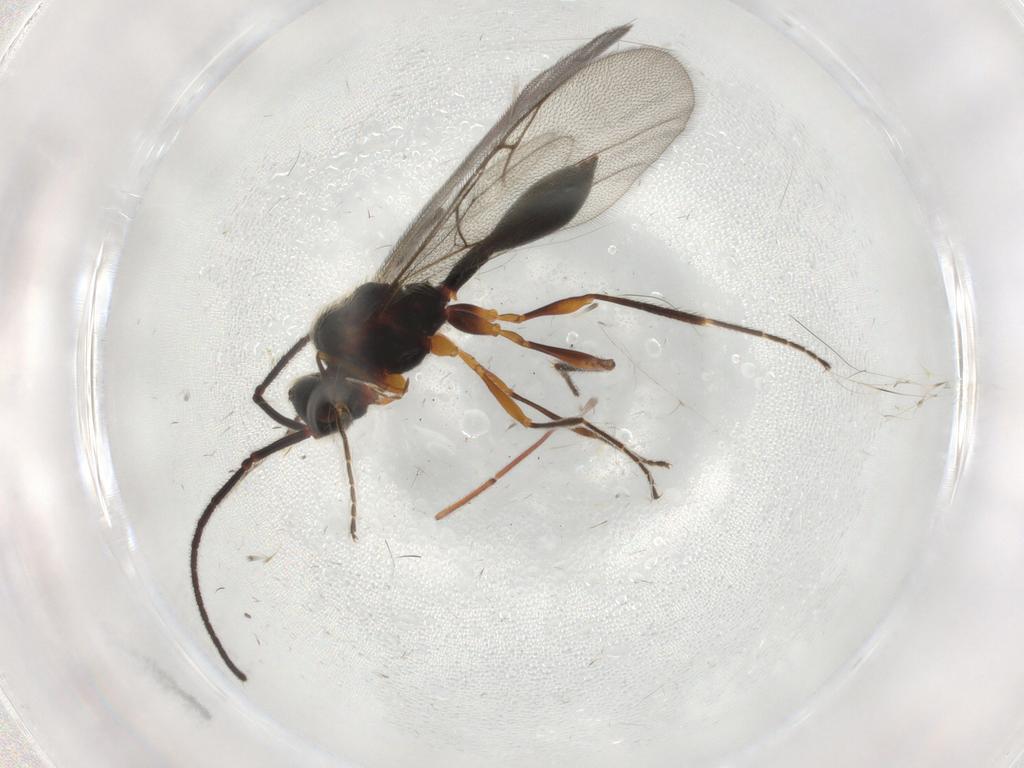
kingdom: Animalia
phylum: Arthropoda
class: Insecta
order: Hymenoptera
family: Diapriidae
